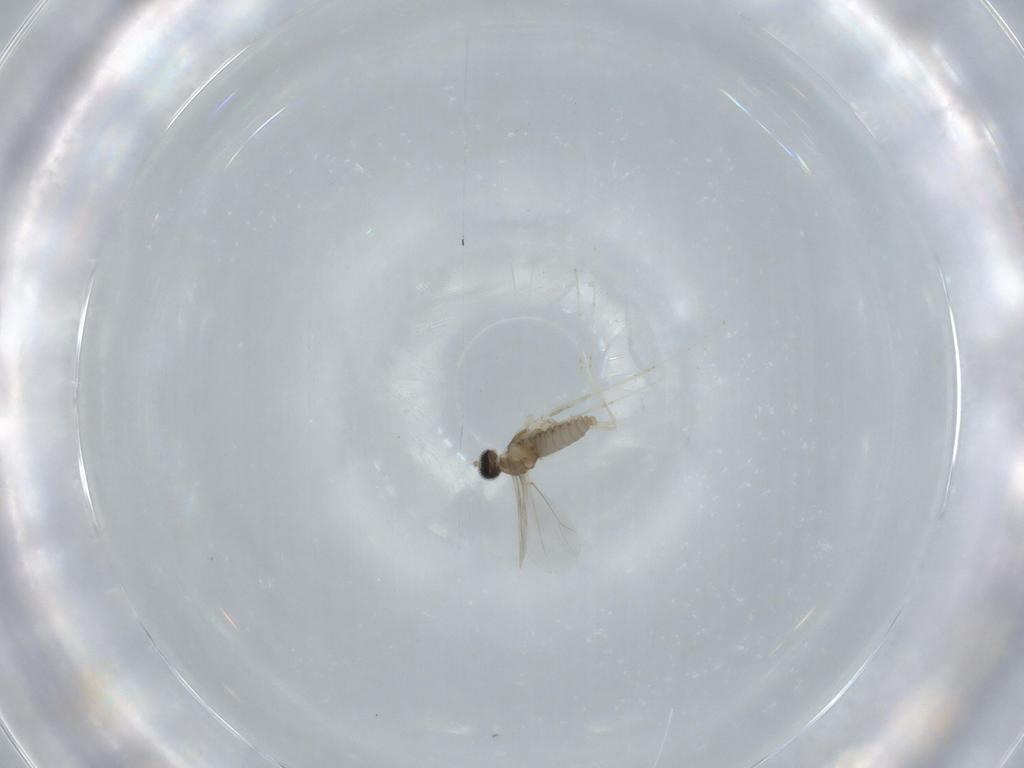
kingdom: Animalia
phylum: Arthropoda
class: Insecta
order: Diptera
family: Cecidomyiidae
